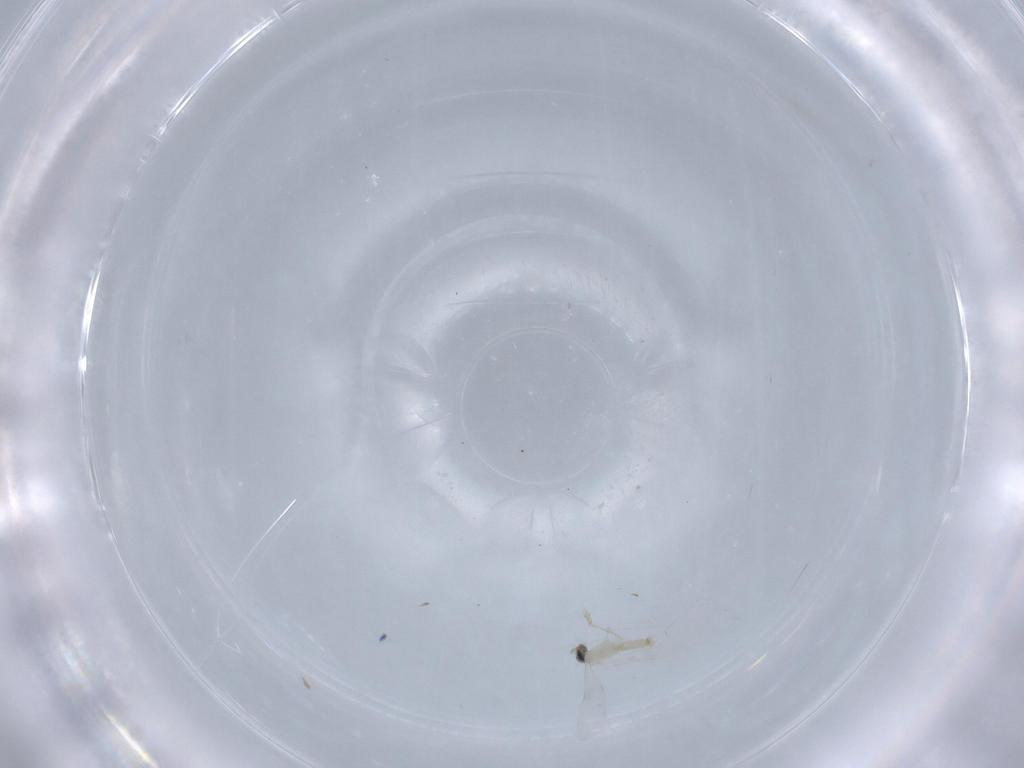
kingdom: Animalia
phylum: Arthropoda
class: Insecta
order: Diptera
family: Cecidomyiidae
